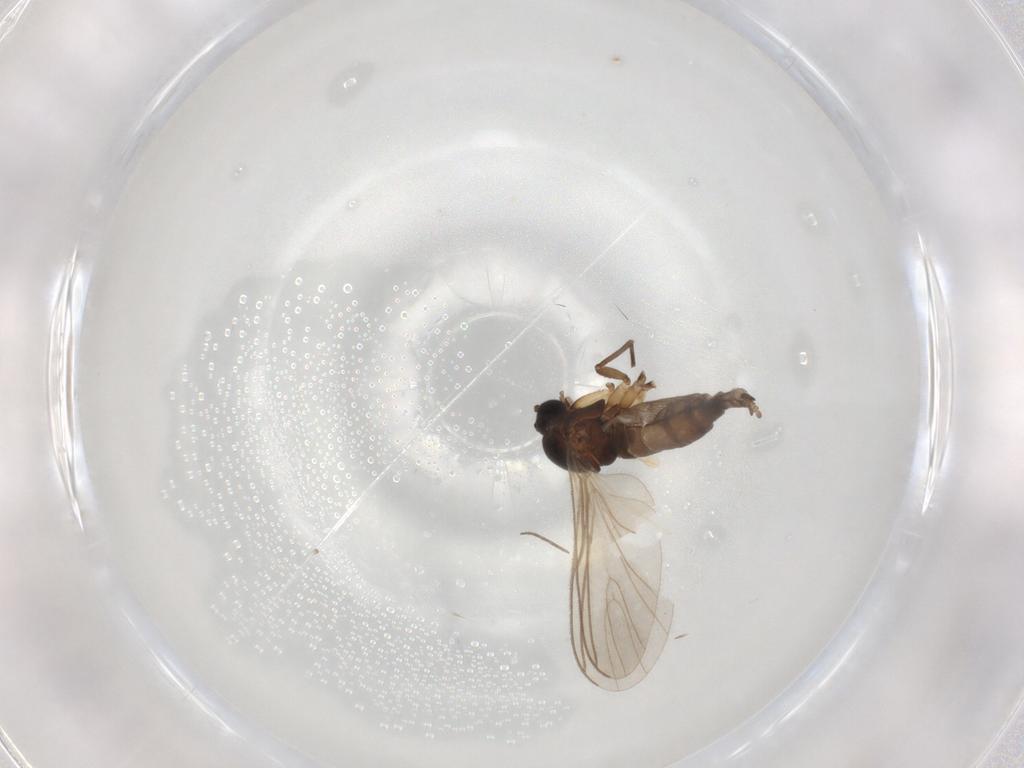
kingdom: Animalia
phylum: Arthropoda
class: Insecta
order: Diptera
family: Sciaridae
